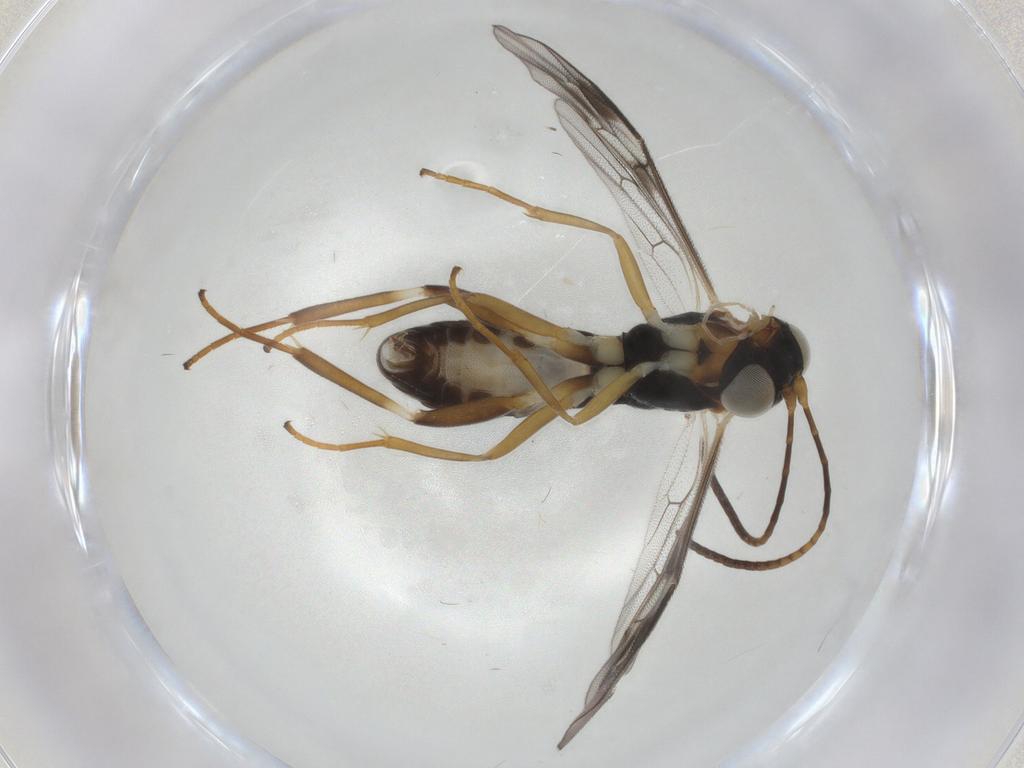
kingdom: Animalia
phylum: Arthropoda
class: Insecta
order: Hymenoptera
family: Ichneumonidae
